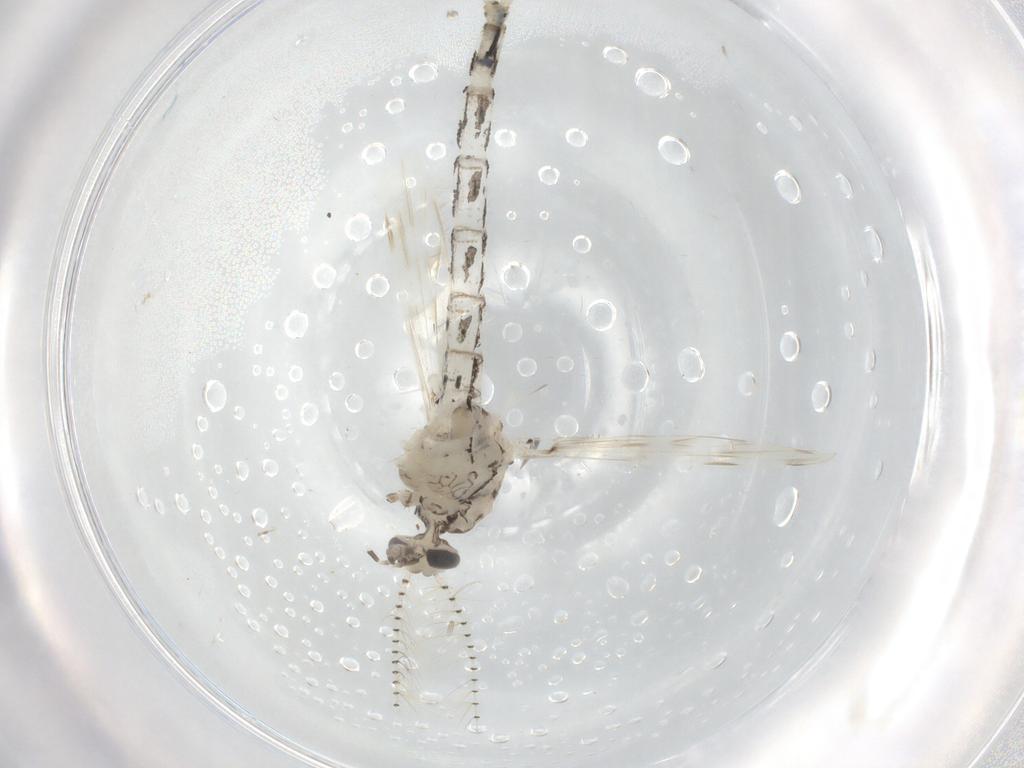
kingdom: Animalia
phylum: Arthropoda
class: Insecta
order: Diptera
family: Chaoboridae
